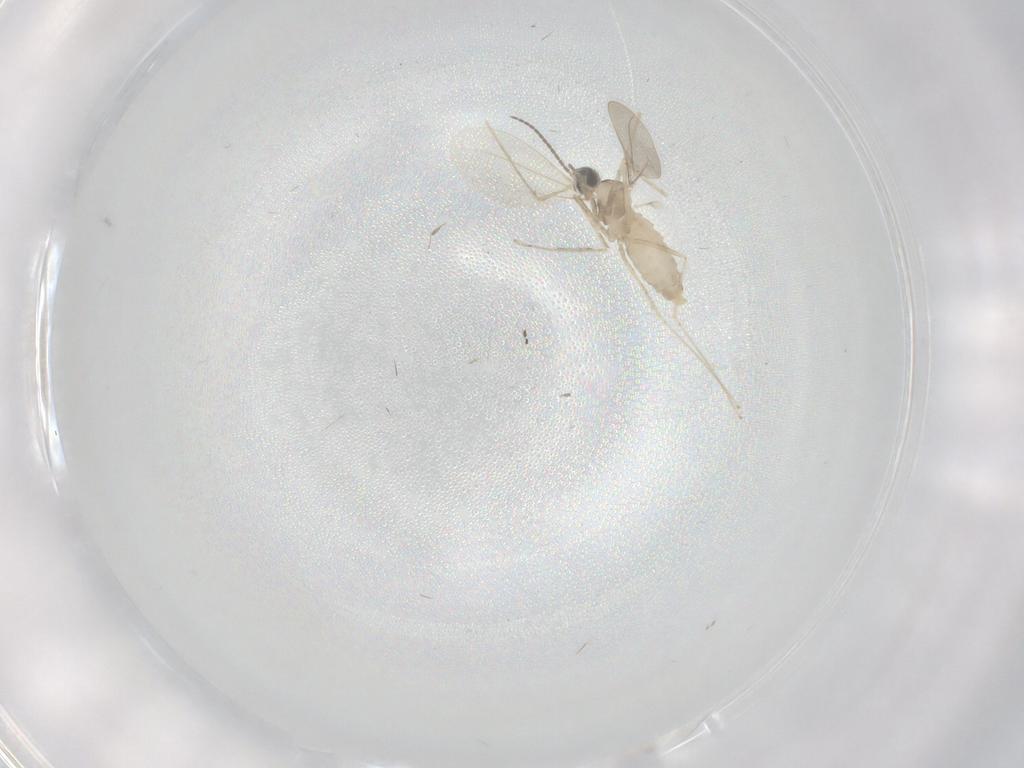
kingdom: Animalia
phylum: Arthropoda
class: Insecta
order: Diptera
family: Cecidomyiidae
